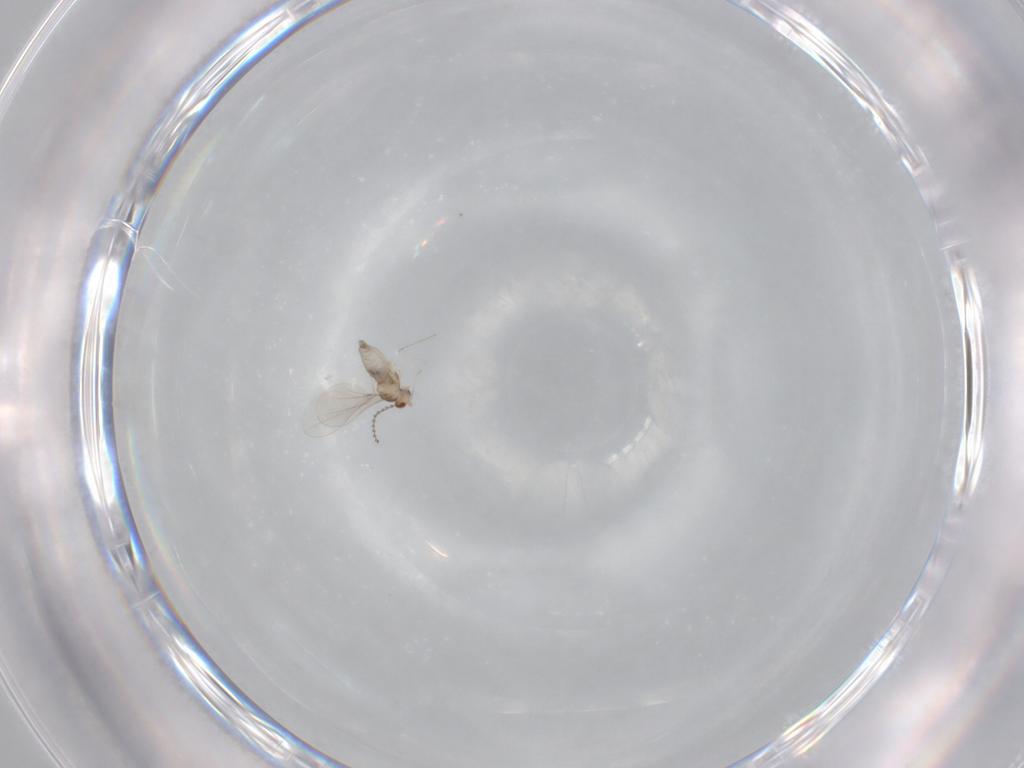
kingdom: Animalia
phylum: Arthropoda
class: Insecta
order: Diptera
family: Cecidomyiidae
